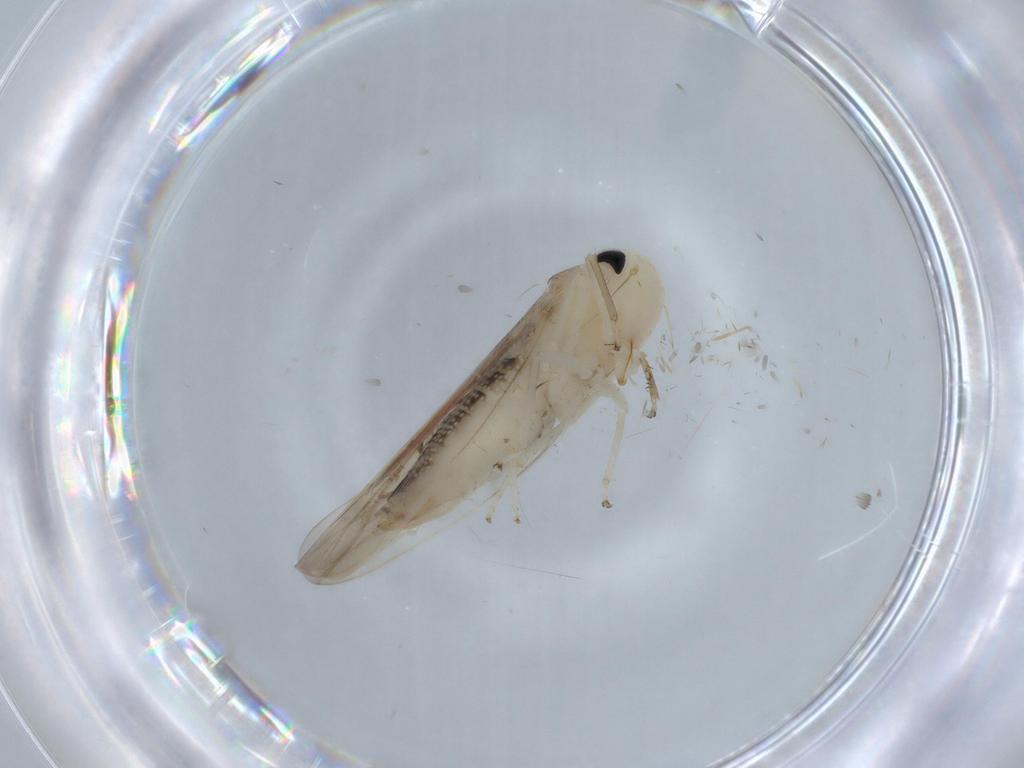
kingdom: Animalia
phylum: Arthropoda
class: Insecta
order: Hemiptera
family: Cicadellidae
